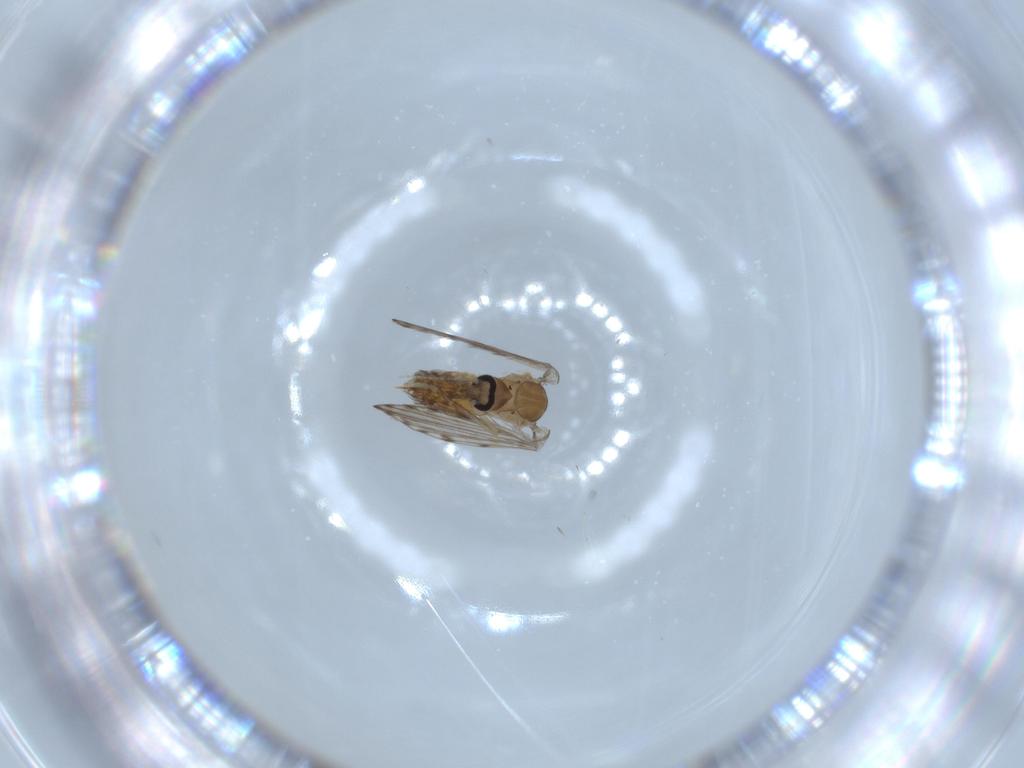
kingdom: Animalia
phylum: Arthropoda
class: Insecta
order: Diptera
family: Psychodidae
